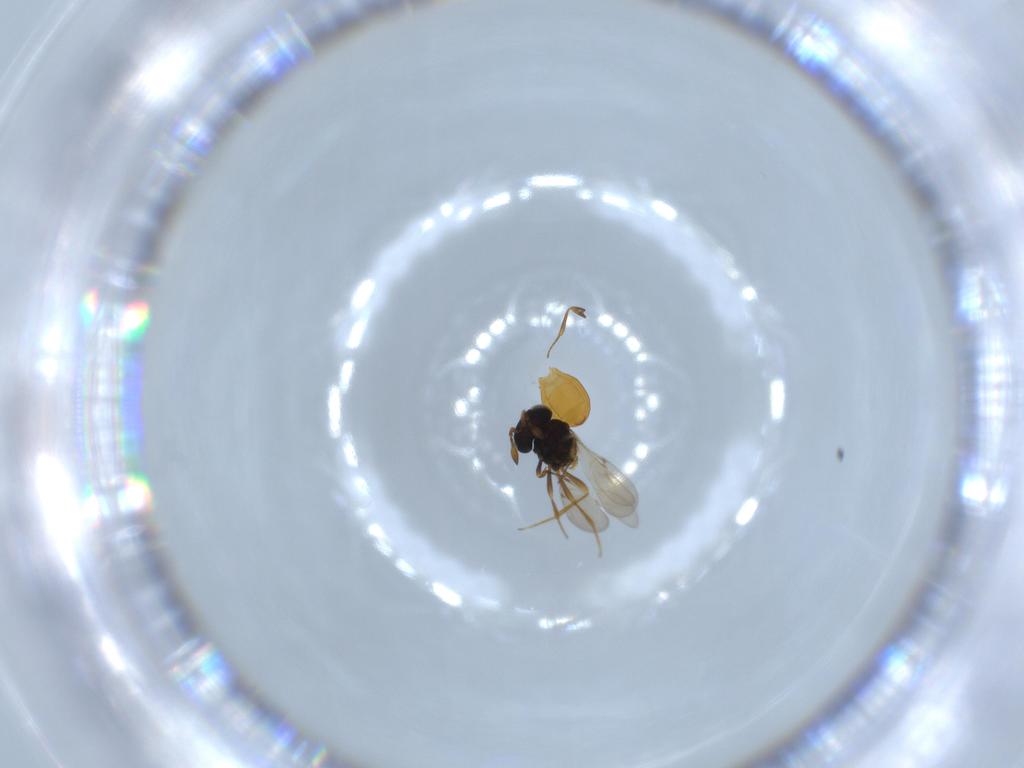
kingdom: Animalia
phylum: Arthropoda
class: Insecta
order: Hymenoptera
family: Scelionidae
